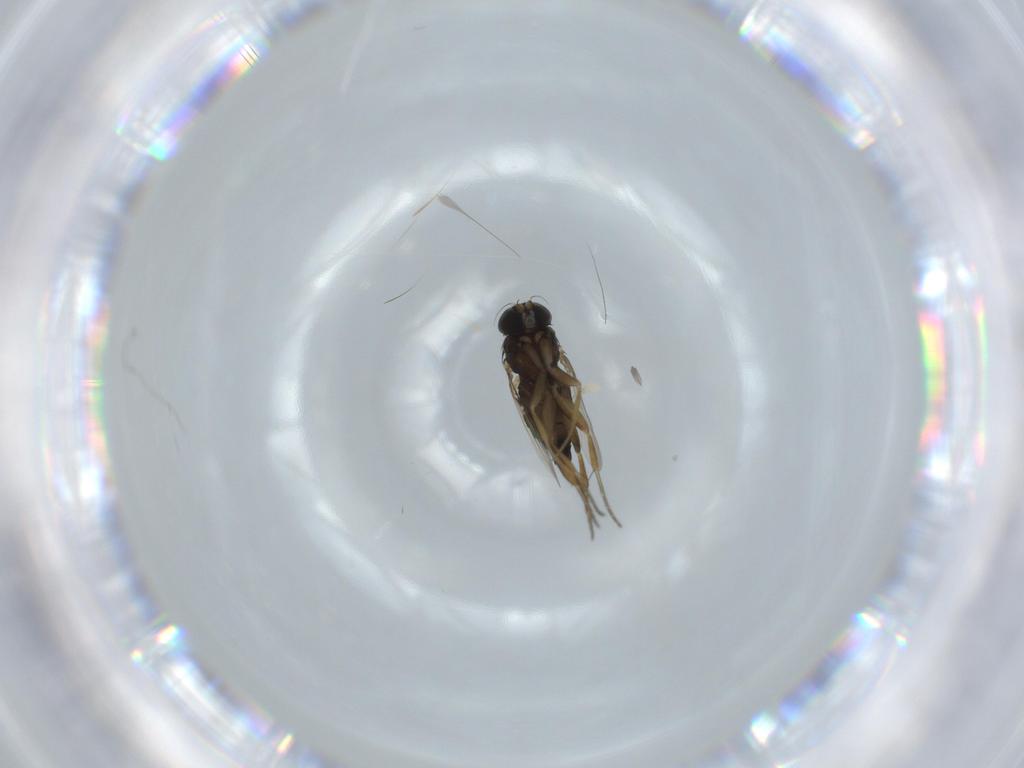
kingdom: Animalia
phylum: Arthropoda
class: Insecta
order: Diptera
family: Phoridae
